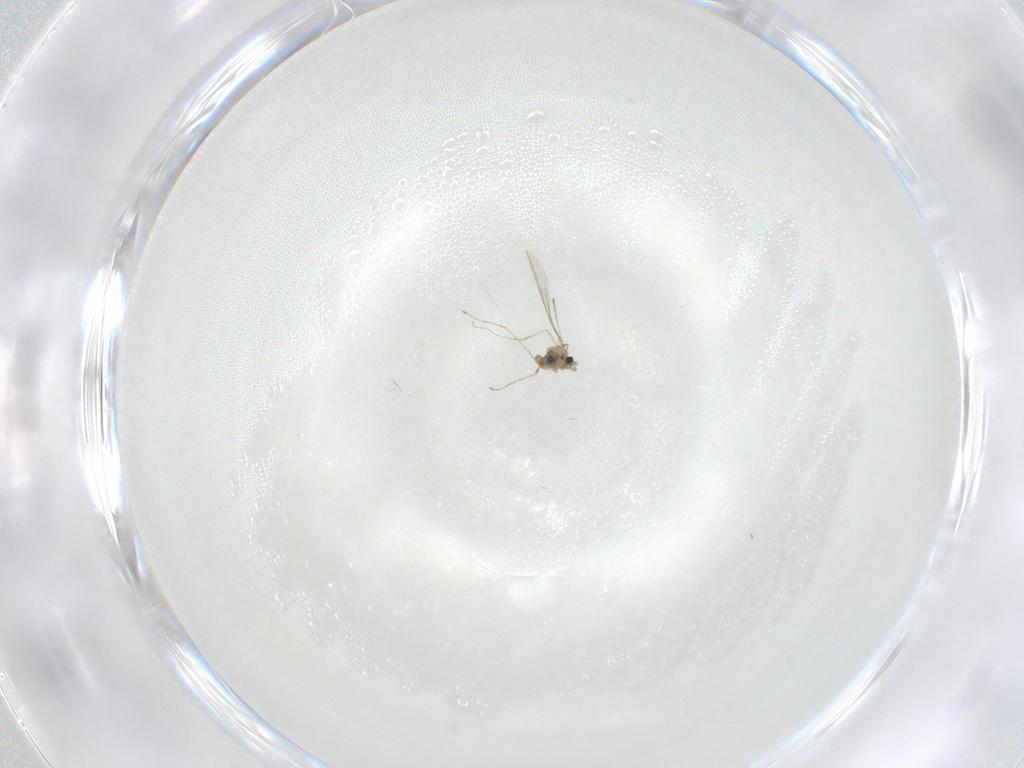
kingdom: Animalia
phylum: Arthropoda
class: Insecta
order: Diptera
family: Cecidomyiidae
